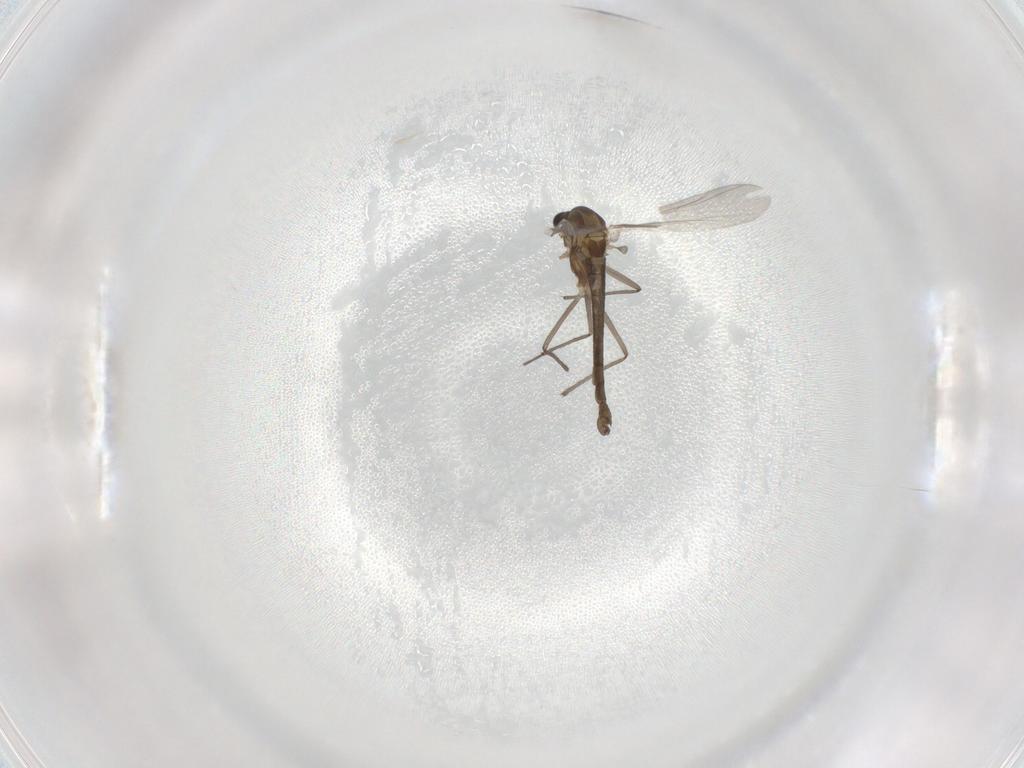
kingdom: Animalia
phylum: Arthropoda
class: Insecta
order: Diptera
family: Chironomidae
